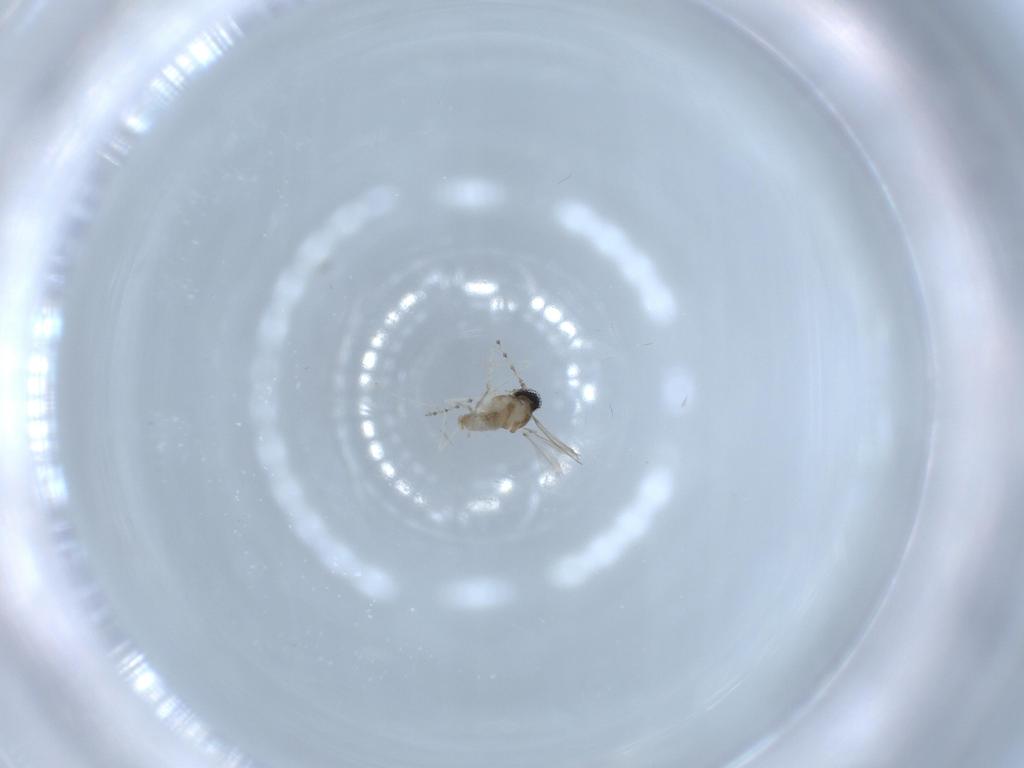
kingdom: Animalia
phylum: Arthropoda
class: Insecta
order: Diptera
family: Cecidomyiidae
